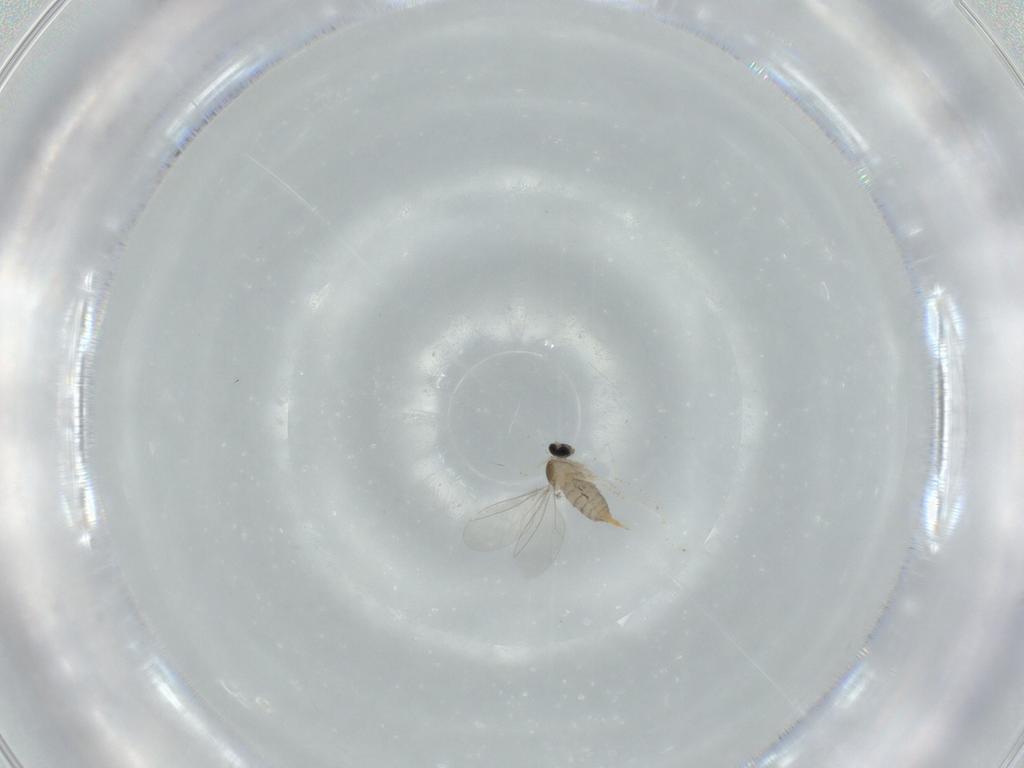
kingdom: Animalia
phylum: Arthropoda
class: Insecta
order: Diptera
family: Cecidomyiidae
